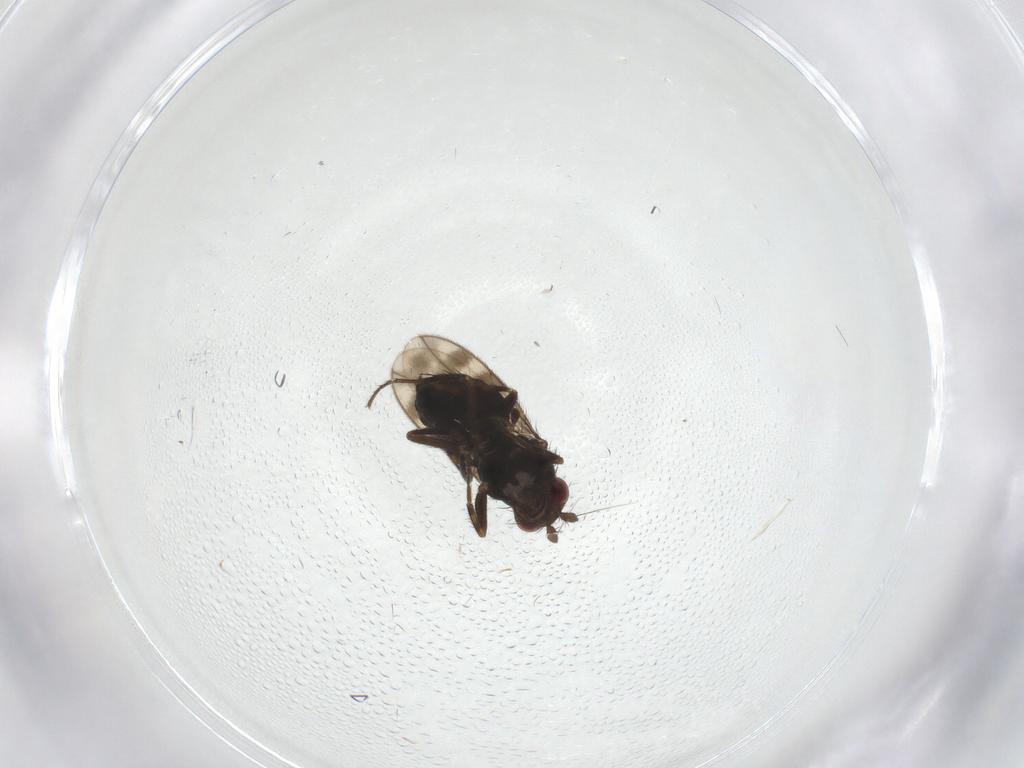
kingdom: Animalia
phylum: Arthropoda
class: Insecta
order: Diptera
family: Sphaeroceridae
